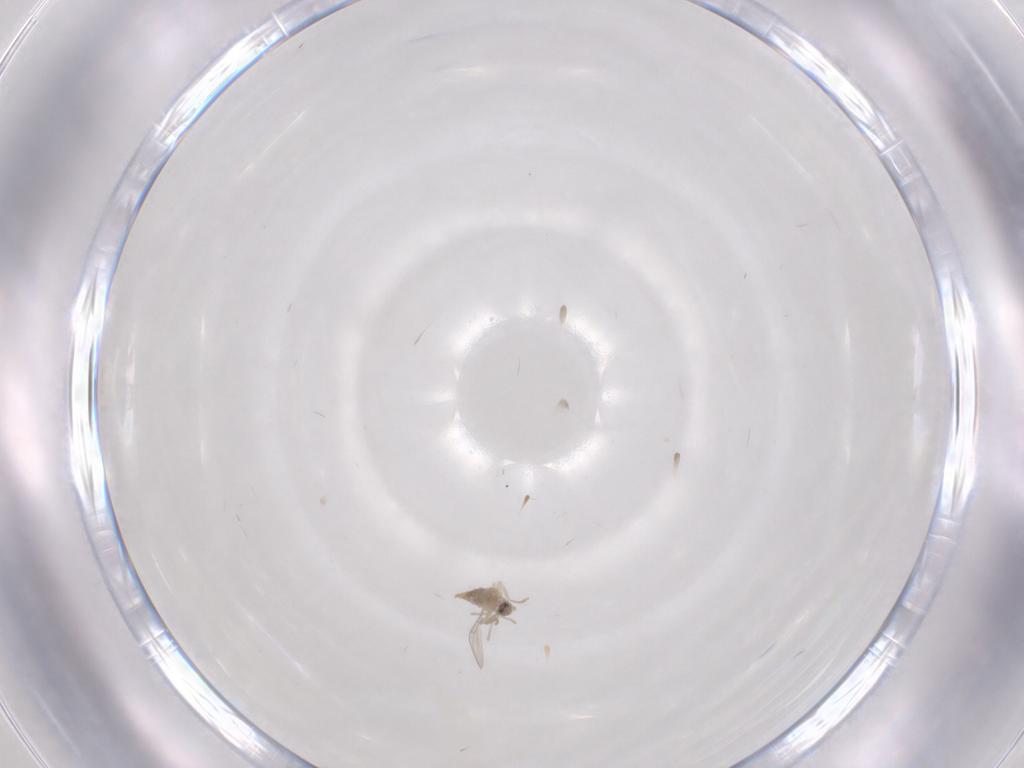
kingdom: Animalia
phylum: Arthropoda
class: Insecta
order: Diptera
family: Cecidomyiidae
